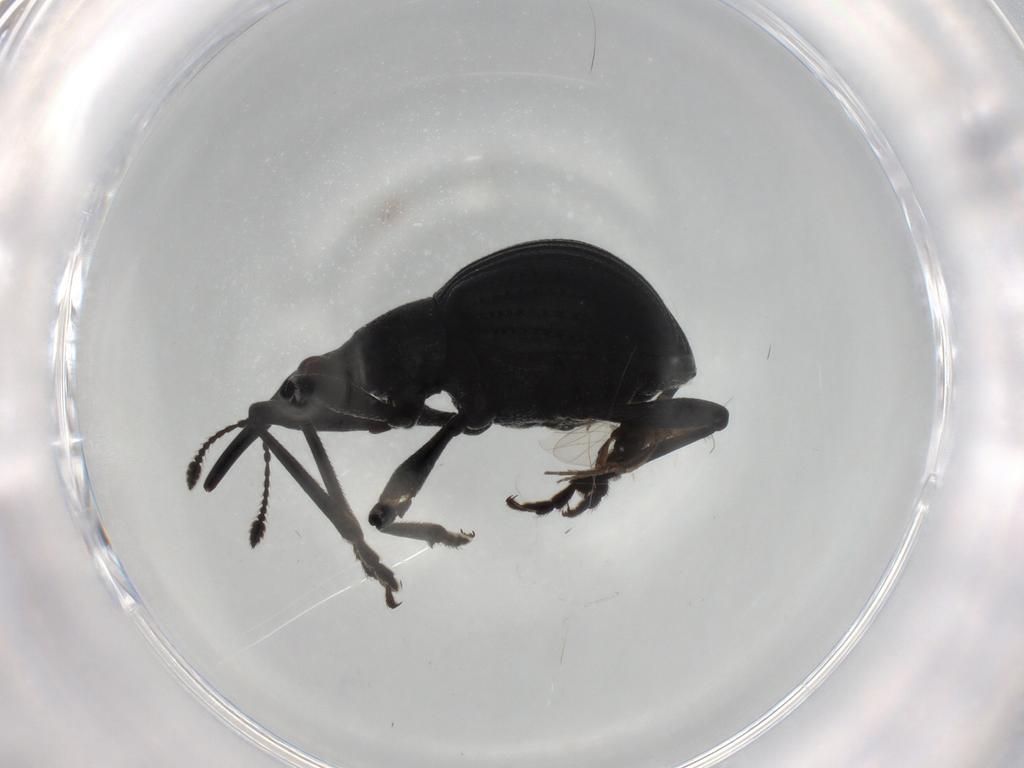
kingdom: Animalia
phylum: Arthropoda
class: Insecta
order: Coleoptera
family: Brentidae
